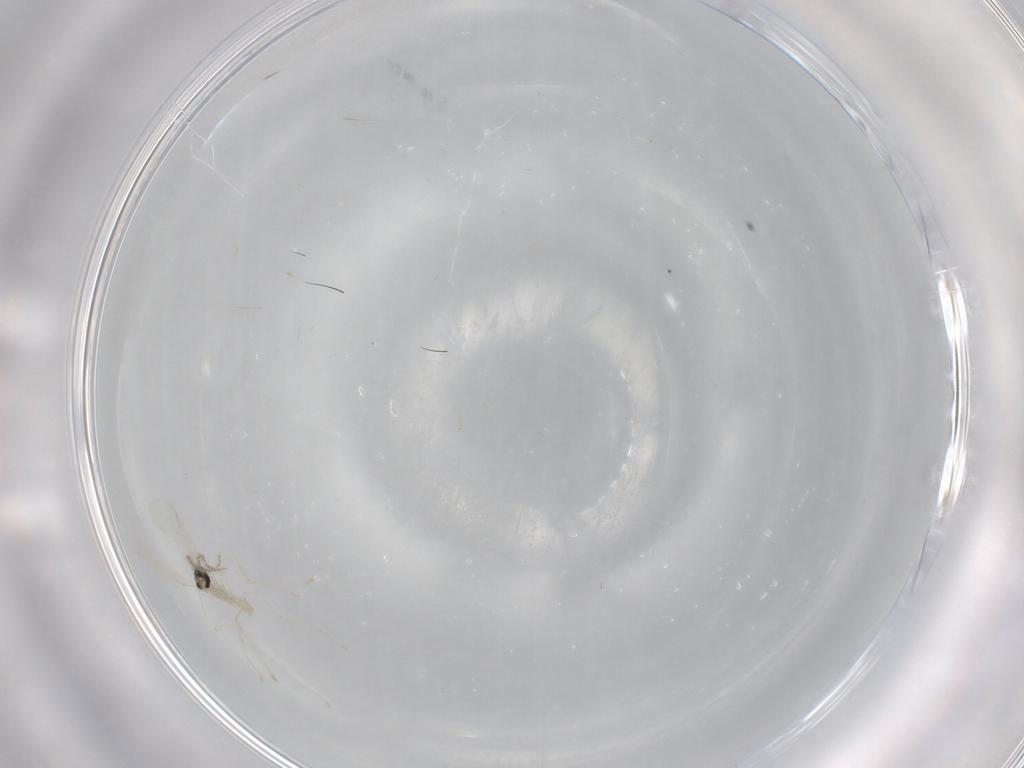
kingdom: Animalia
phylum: Arthropoda
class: Insecta
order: Diptera
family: Cecidomyiidae
